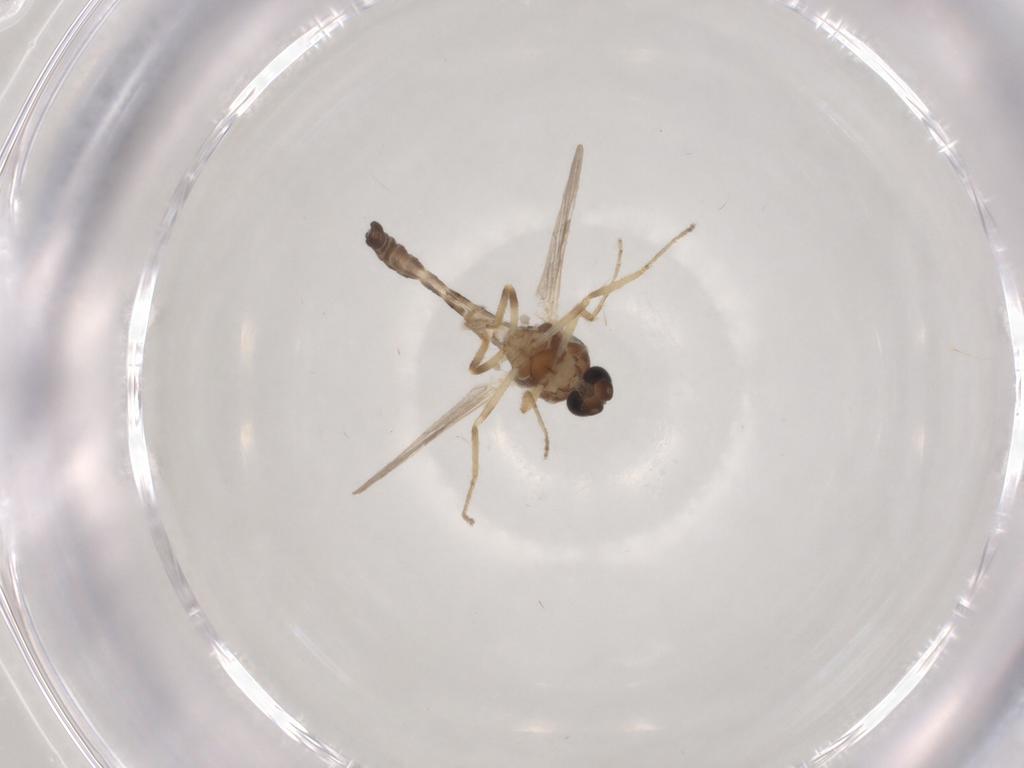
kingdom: Animalia
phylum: Arthropoda
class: Insecta
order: Diptera
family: Ceratopogonidae
